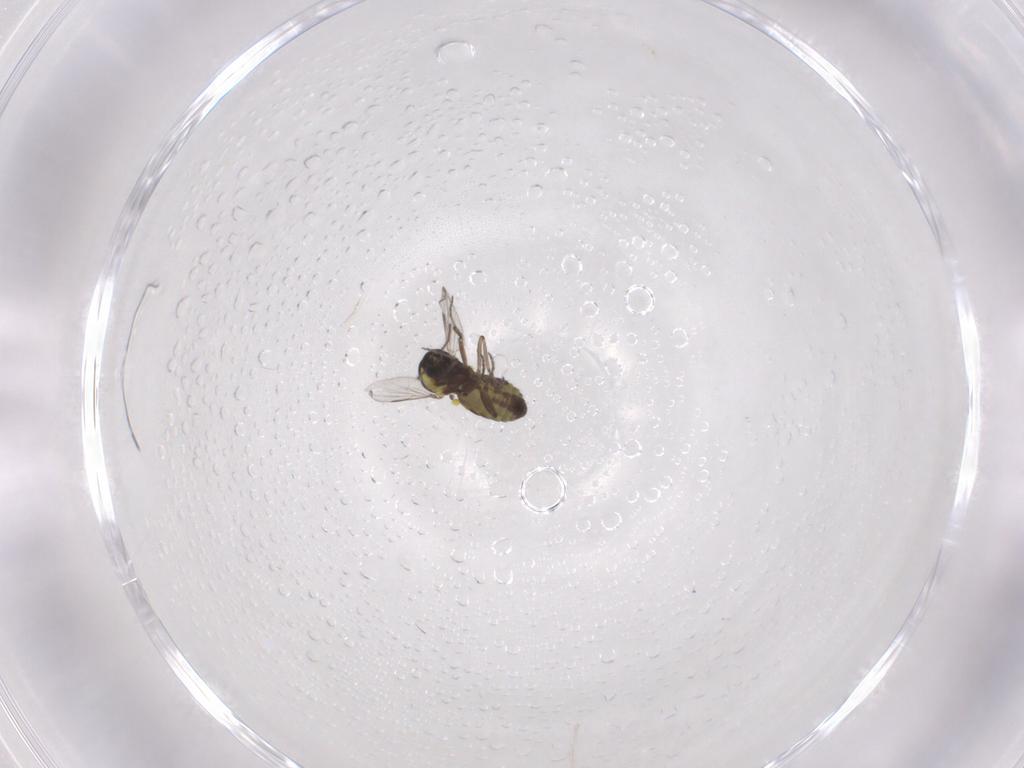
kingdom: Animalia
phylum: Arthropoda
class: Insecta
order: Diptera
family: Ceratopogonidae
